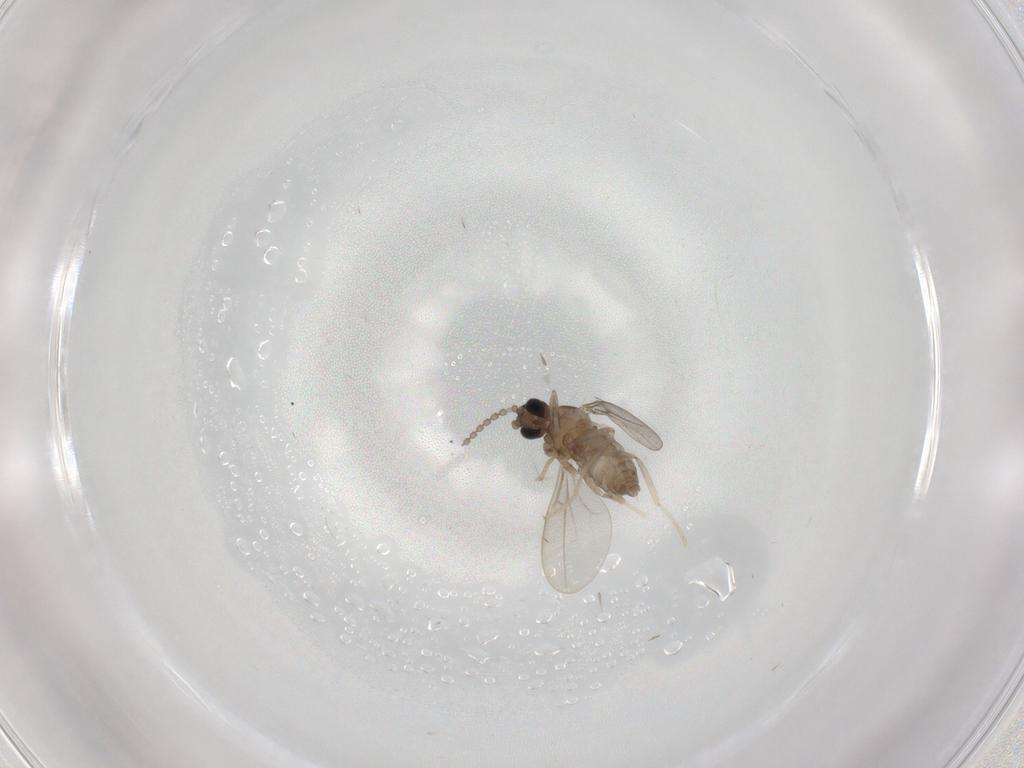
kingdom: Animalia
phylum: Arthropoda
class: Insecta
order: Diptera
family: Cecidomyiidae
